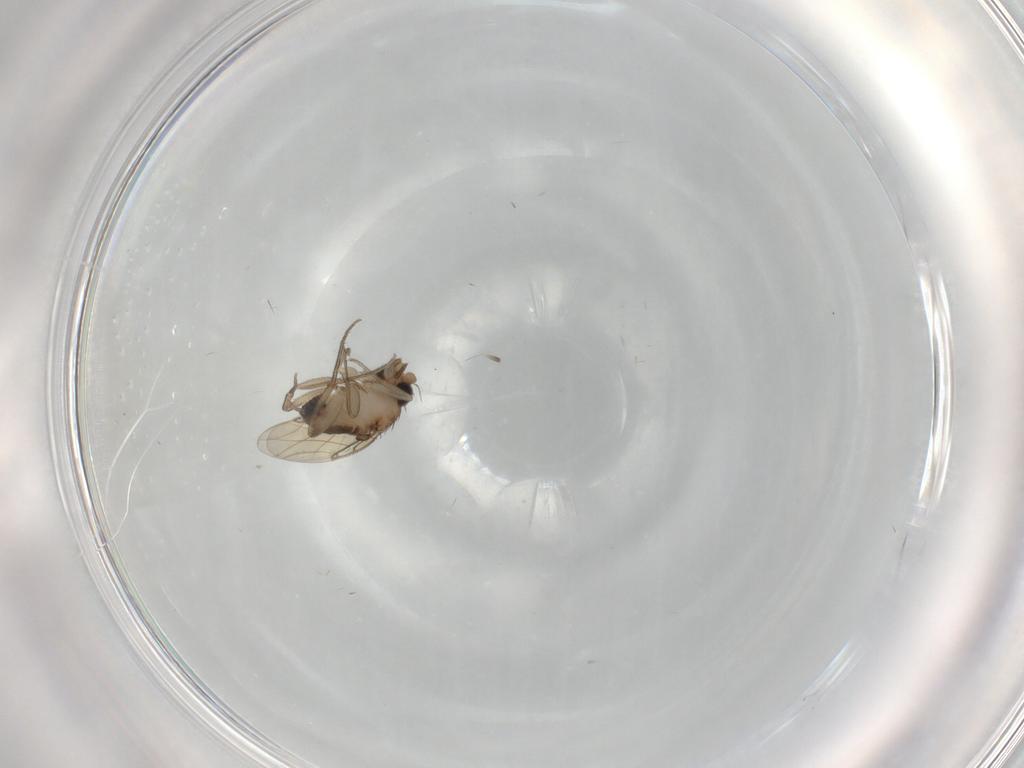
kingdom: Animalia
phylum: Arthropoda
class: Insecta
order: Diptera
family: Phoridae
